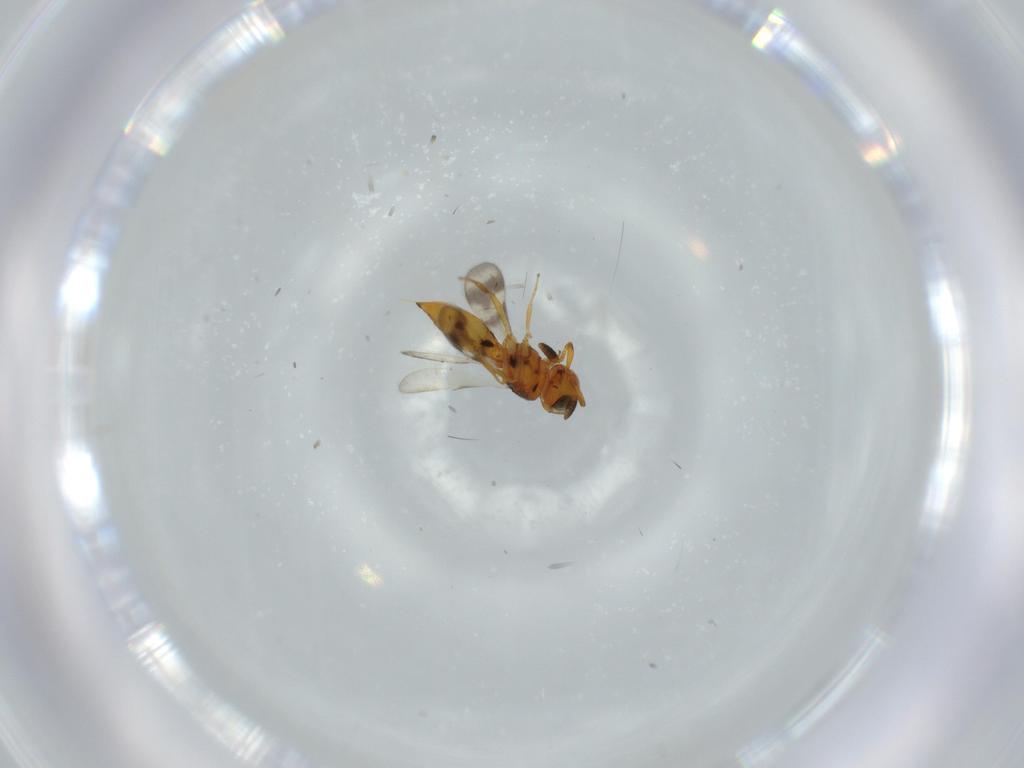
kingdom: Animalia
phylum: Arthropoda
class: Insecta
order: Hymenoptera
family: Scelionidae
